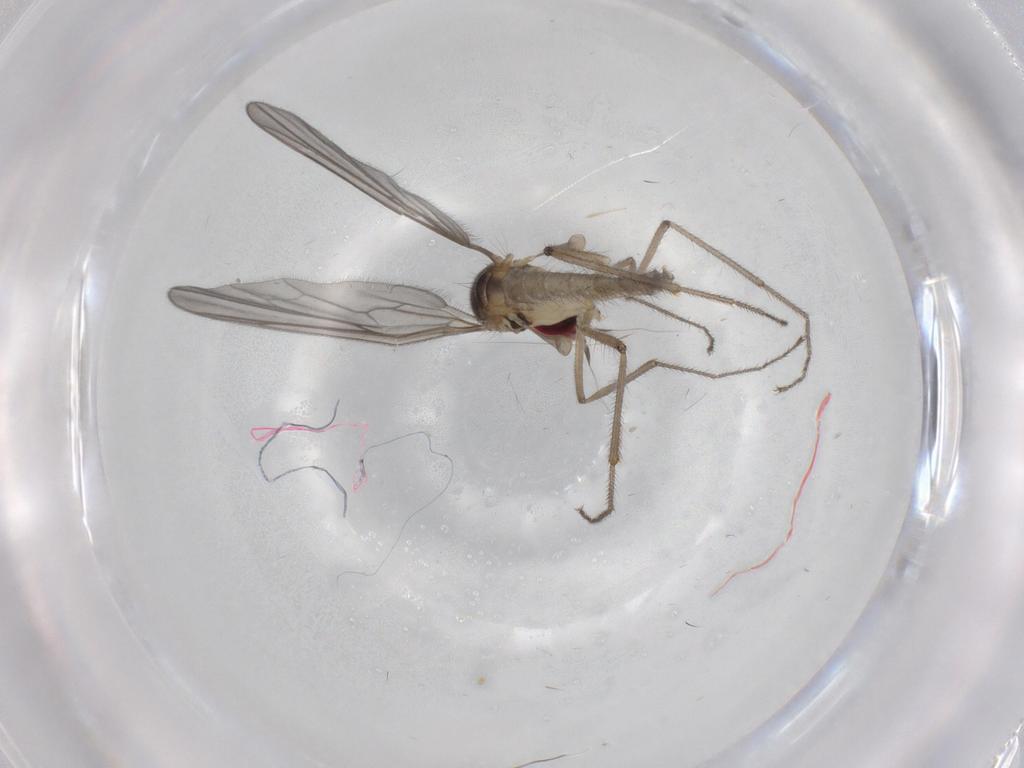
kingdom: Animalia
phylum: Arthropoda
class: Insecta
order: Diptera
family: Hybotidae
